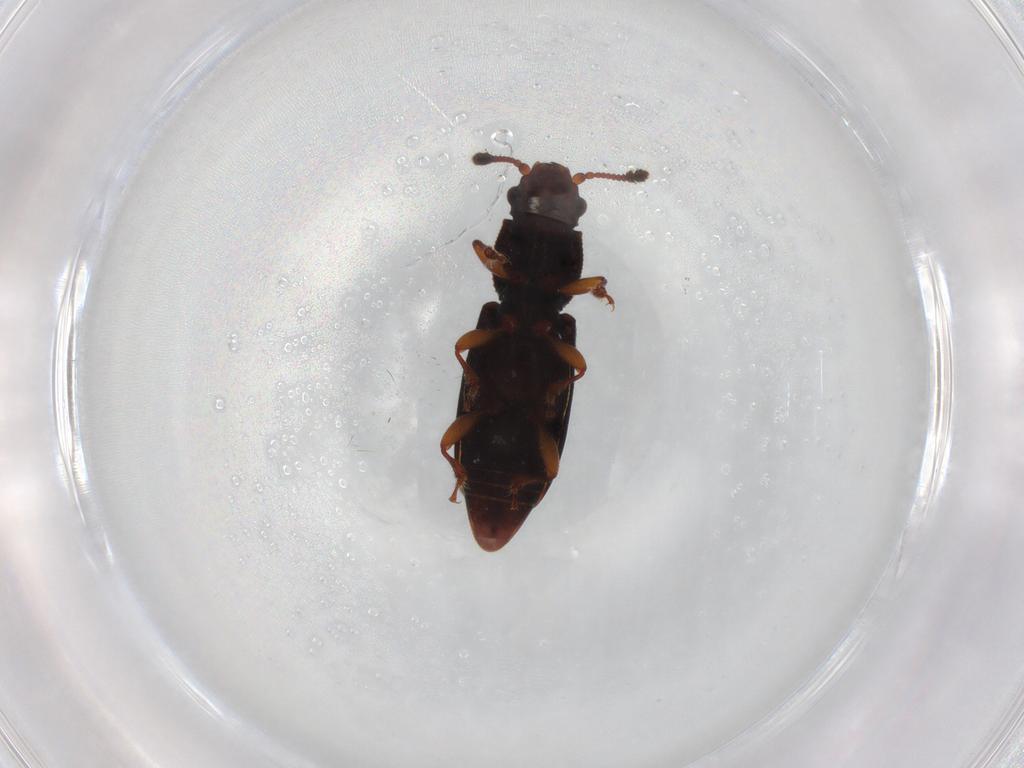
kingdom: Animalia
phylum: Arthropoda
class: Insecta
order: Coleoptera
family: Monotomidae
